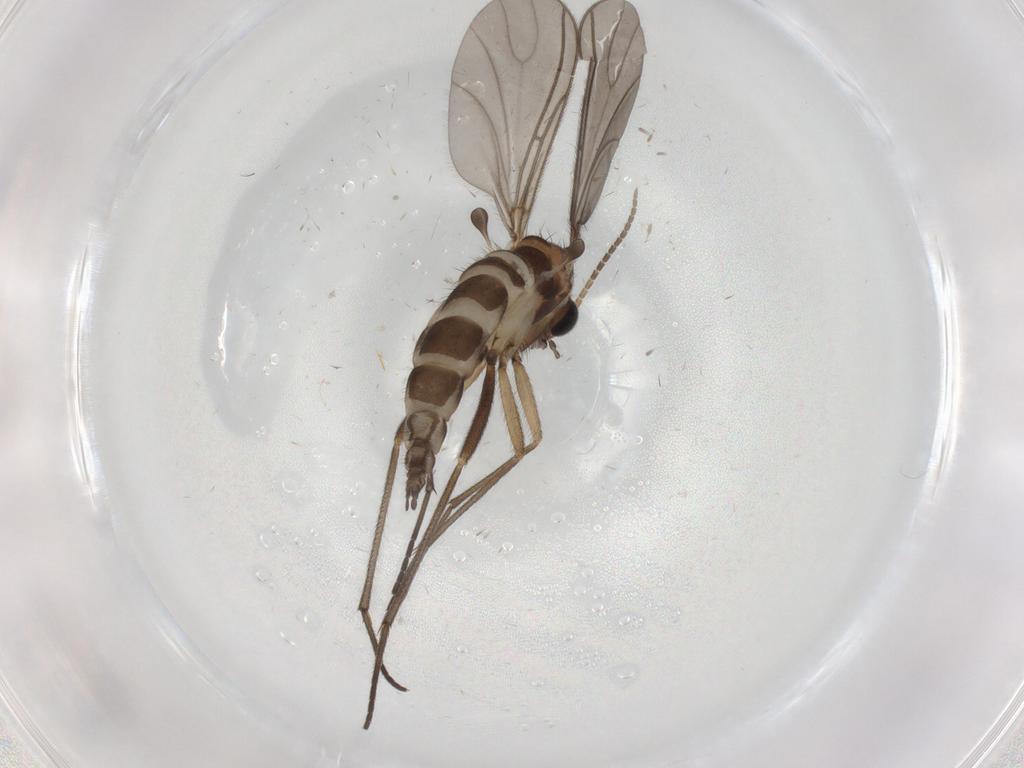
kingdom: Animalia
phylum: Arthropoda
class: Insecta
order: Diptera
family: Sciaridae
